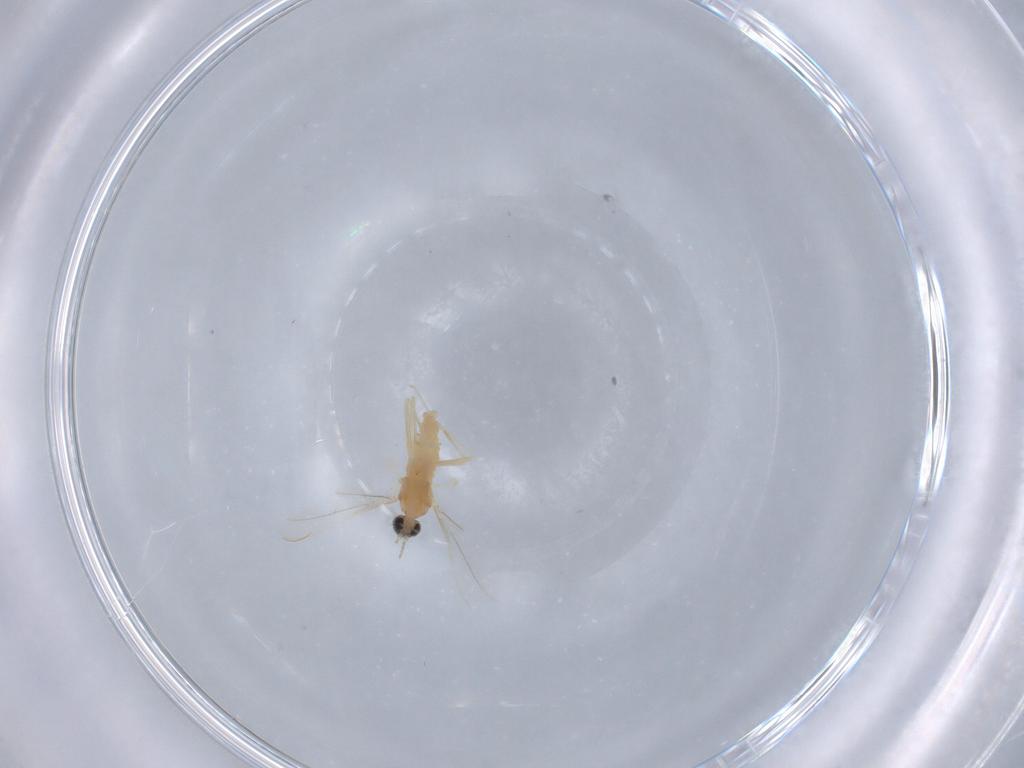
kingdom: Animalia
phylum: Arthropoda
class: Insecta
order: Diptera
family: Cecidomyiidae
